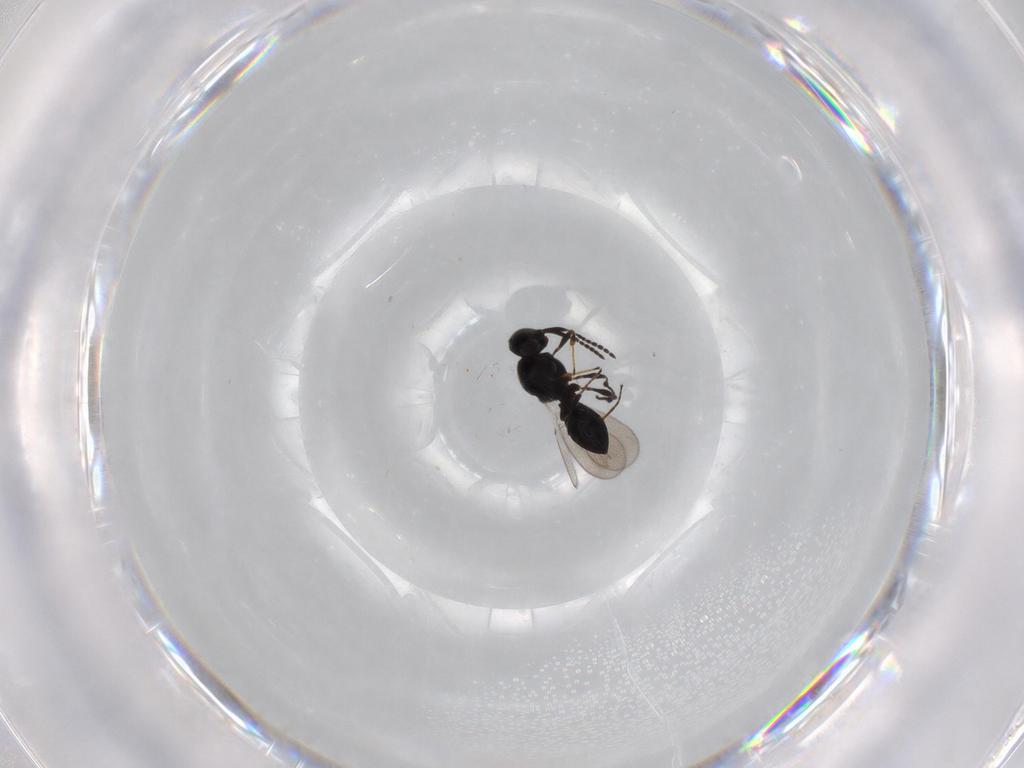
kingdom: Animalia
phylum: Arthropoda
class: Insecta
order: Hymenoptera
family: Platygastridae
